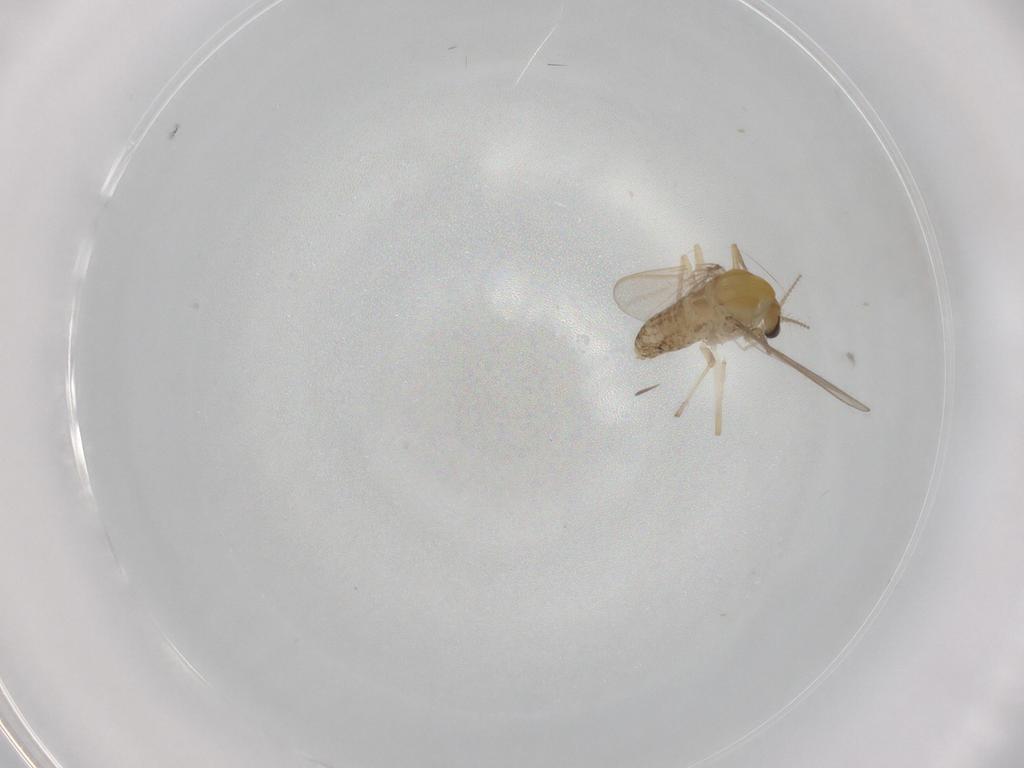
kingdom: Animalia
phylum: Arthropoda
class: Insecta
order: Diptera
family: Chironomidae
